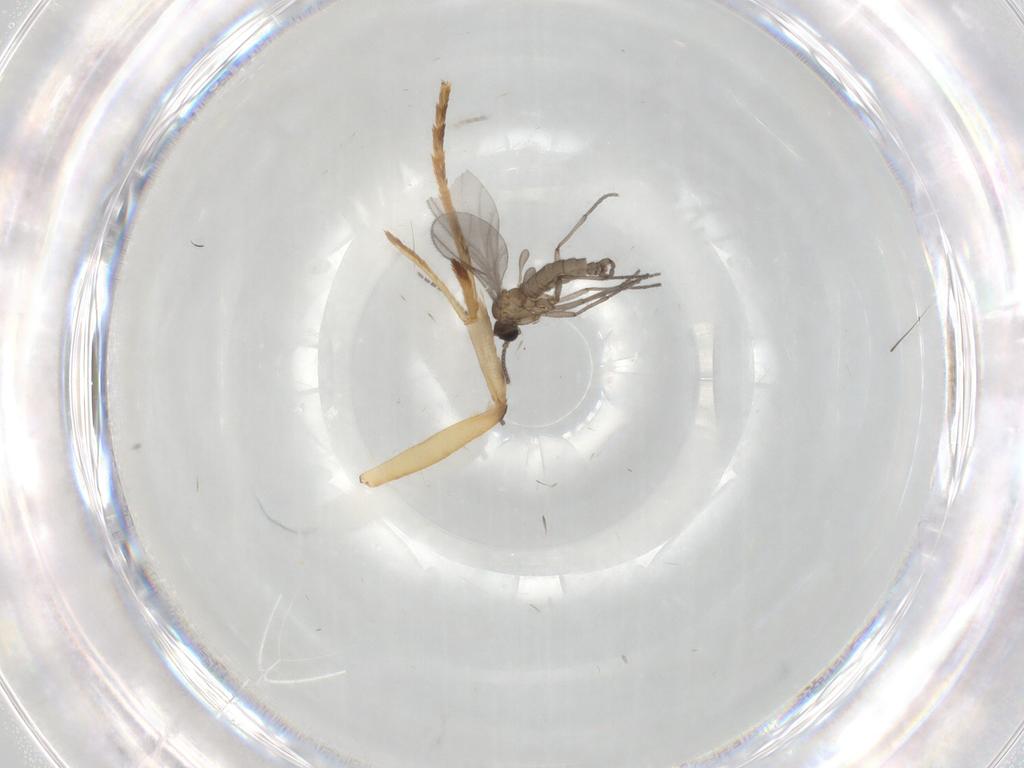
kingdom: Animalia
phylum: Arthropoda
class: Insecta
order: Diptera
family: Sciaridae
